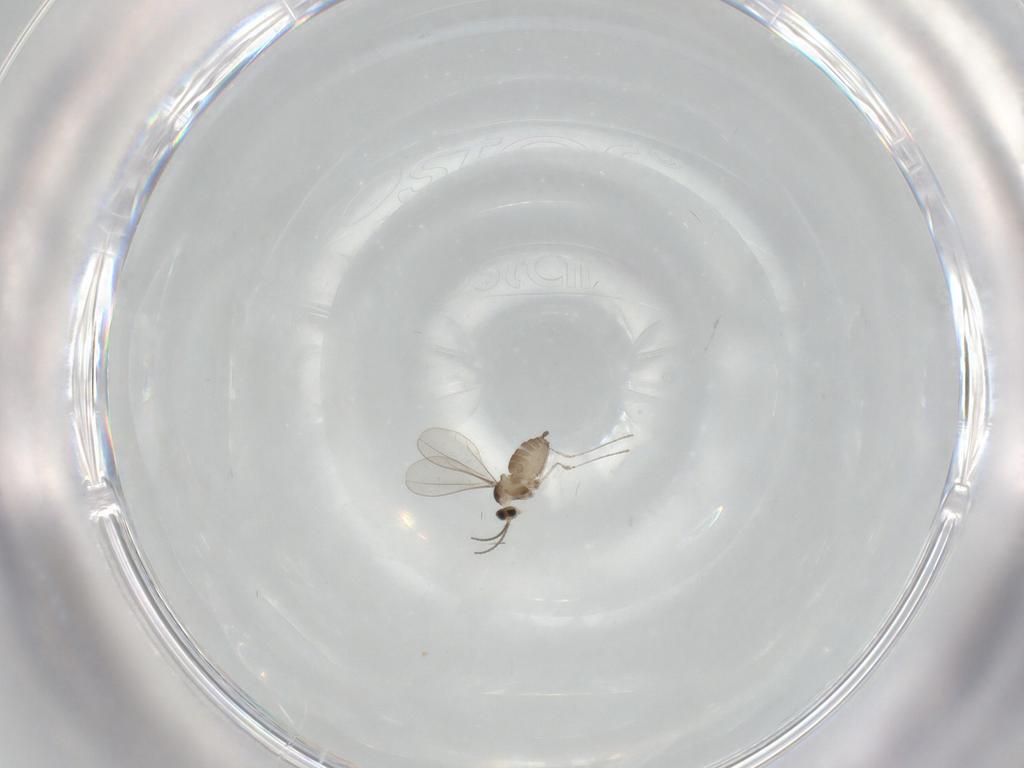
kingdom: Animalia
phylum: Arthropoda
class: Insecta
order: Diptera
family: Cecidomyiidae
